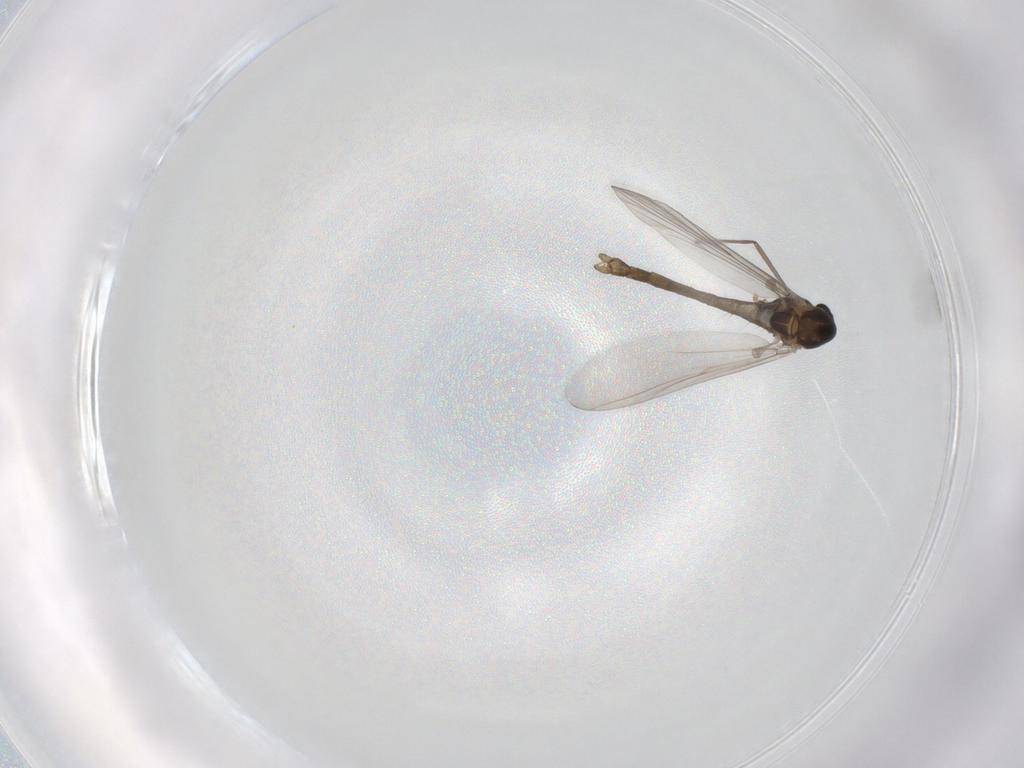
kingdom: Animalia
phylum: Arthropoda
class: Insecta
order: Diptera
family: Chironomidae
